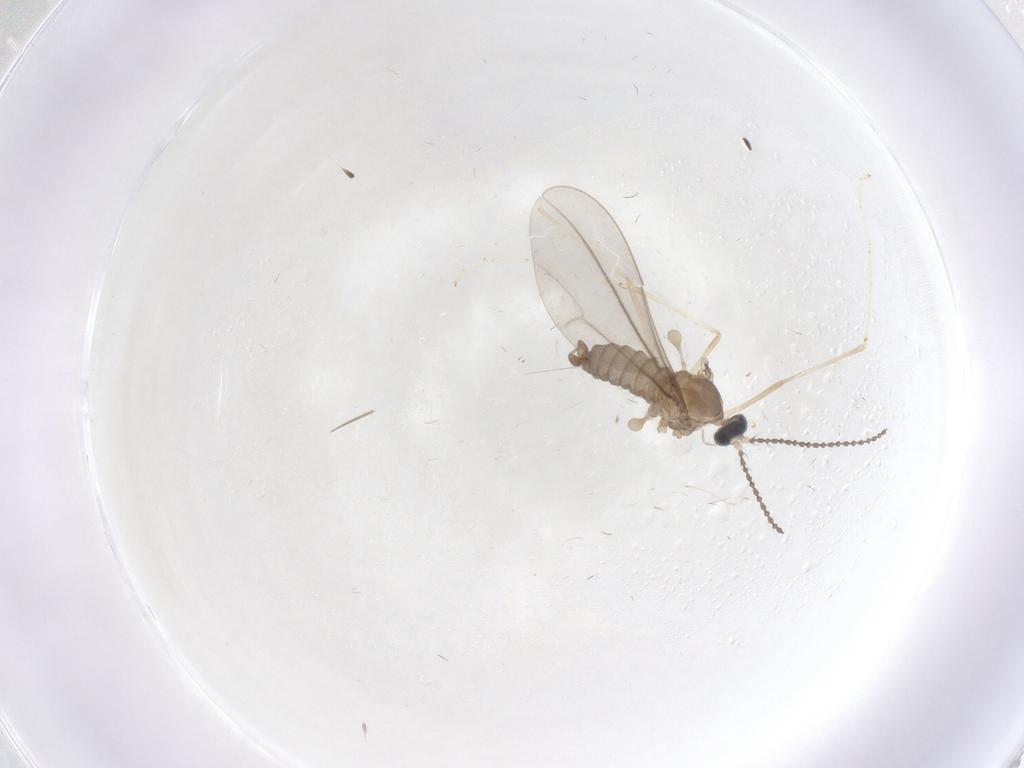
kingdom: Animalia
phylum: Arthropoda
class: Insecta
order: Diptera
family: Cecidomyiidae
